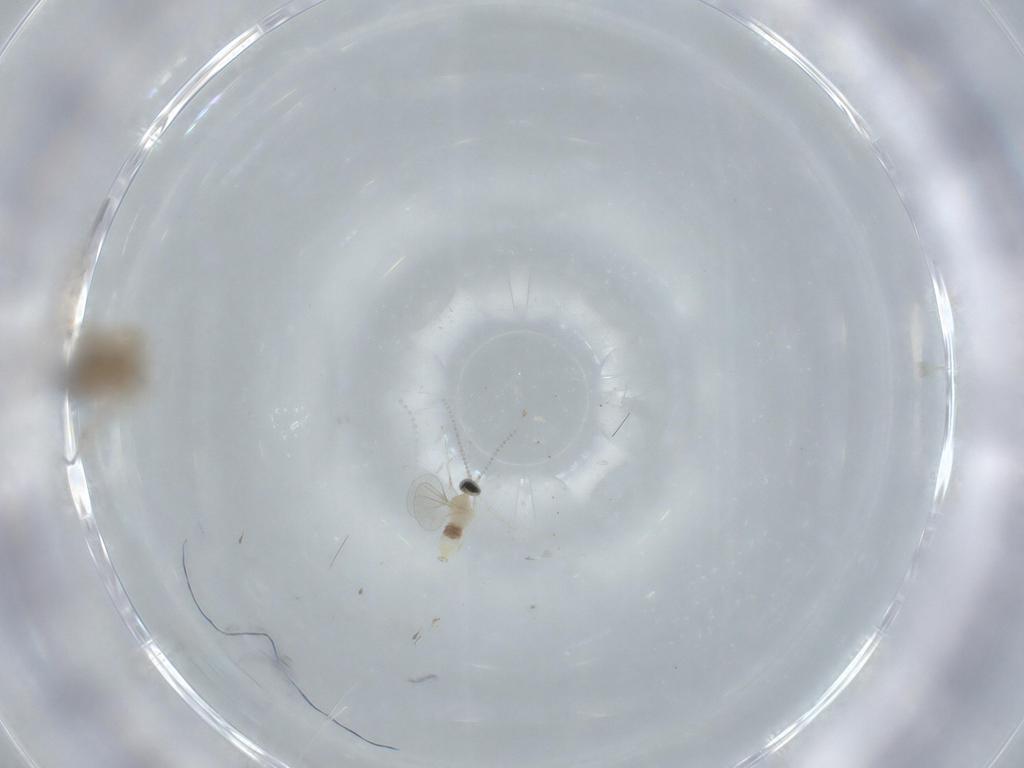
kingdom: Animalia
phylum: Arthropoda
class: Insecta
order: Diptera
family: Cecidomyiidae
